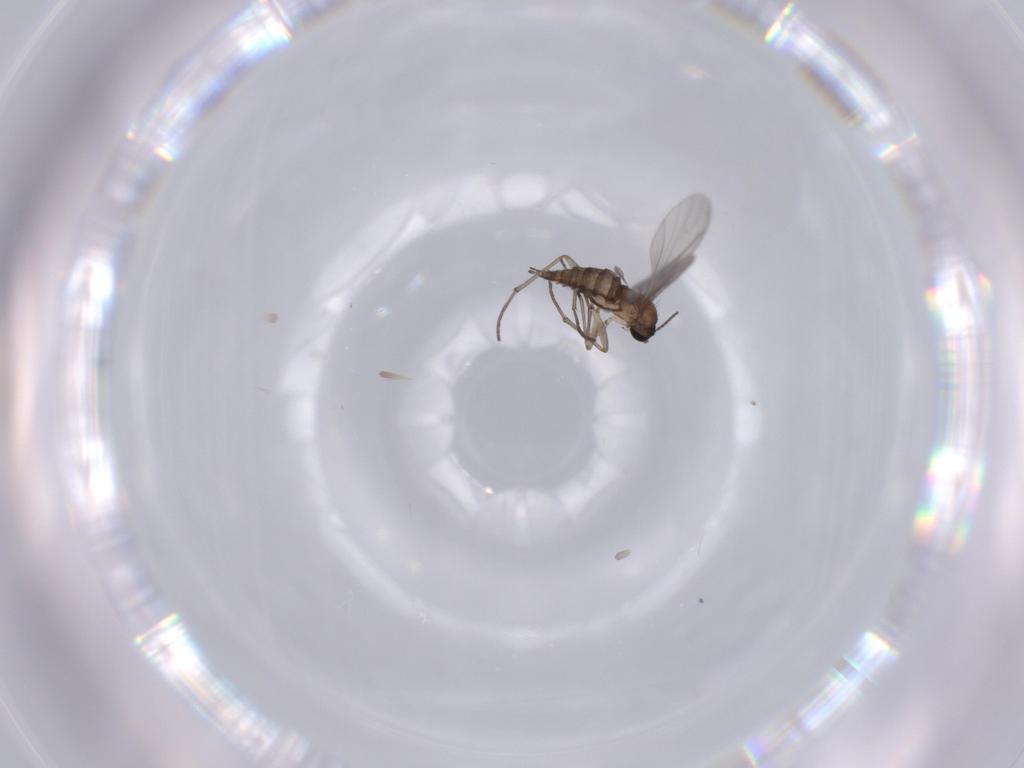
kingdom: Animalia
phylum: Arthropoda
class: Insecta
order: Diptera
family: Sciaridae
